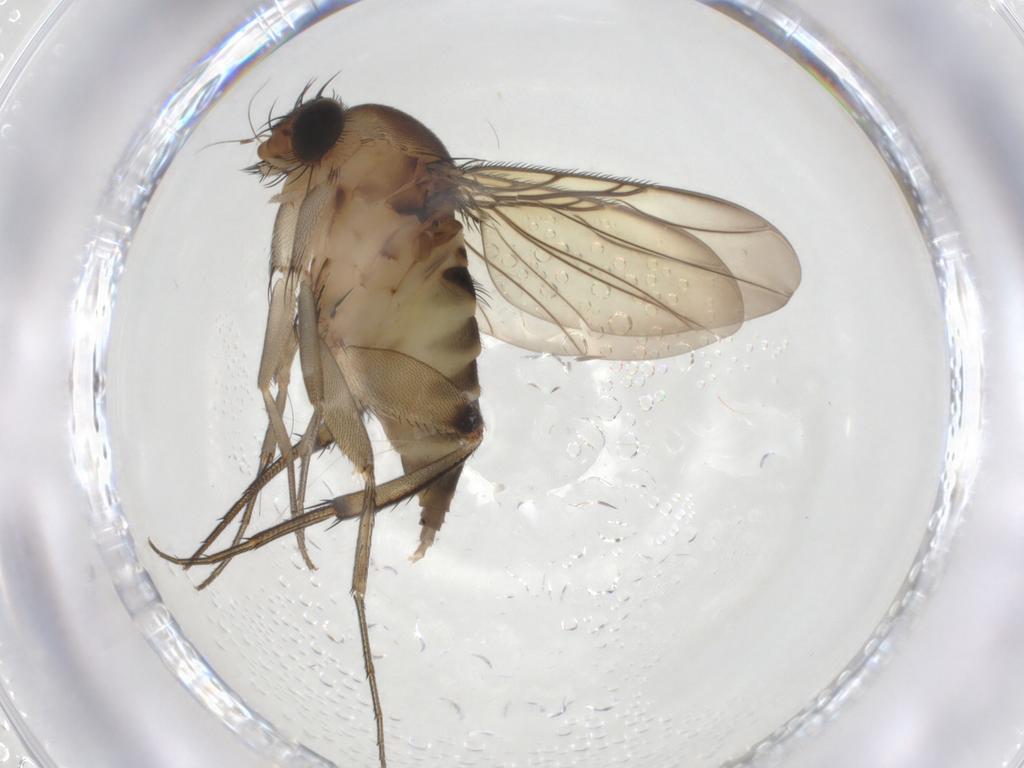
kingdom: Animalia
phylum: Arthropoda
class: Insecta
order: Diptera
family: Phoridae
